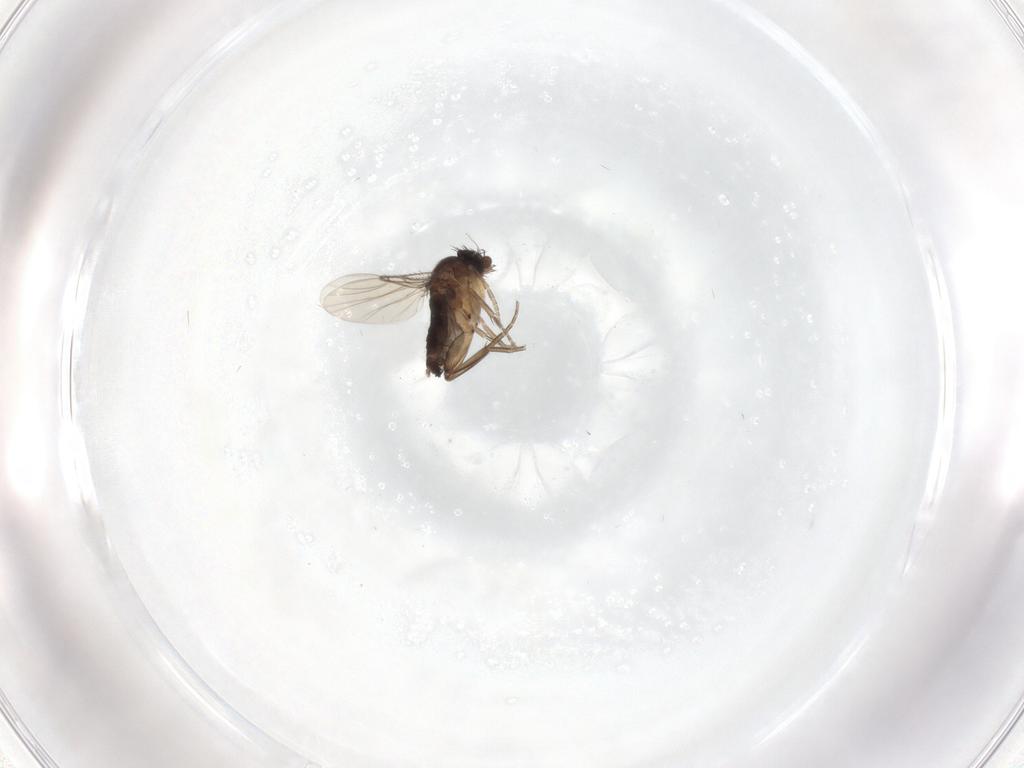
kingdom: Animalia
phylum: Arthropoda
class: Insecta
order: Diptera
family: Phoridae
